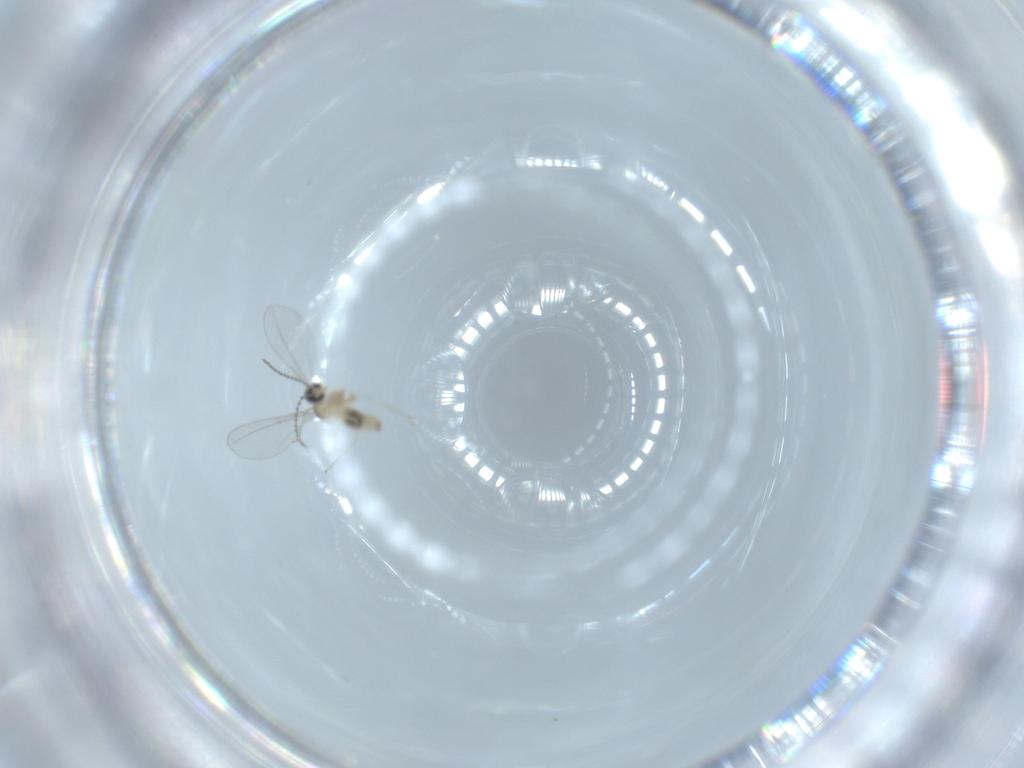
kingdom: Animalia
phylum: Arthropoda
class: Insecta
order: Diptera
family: Cecidomyiidae
